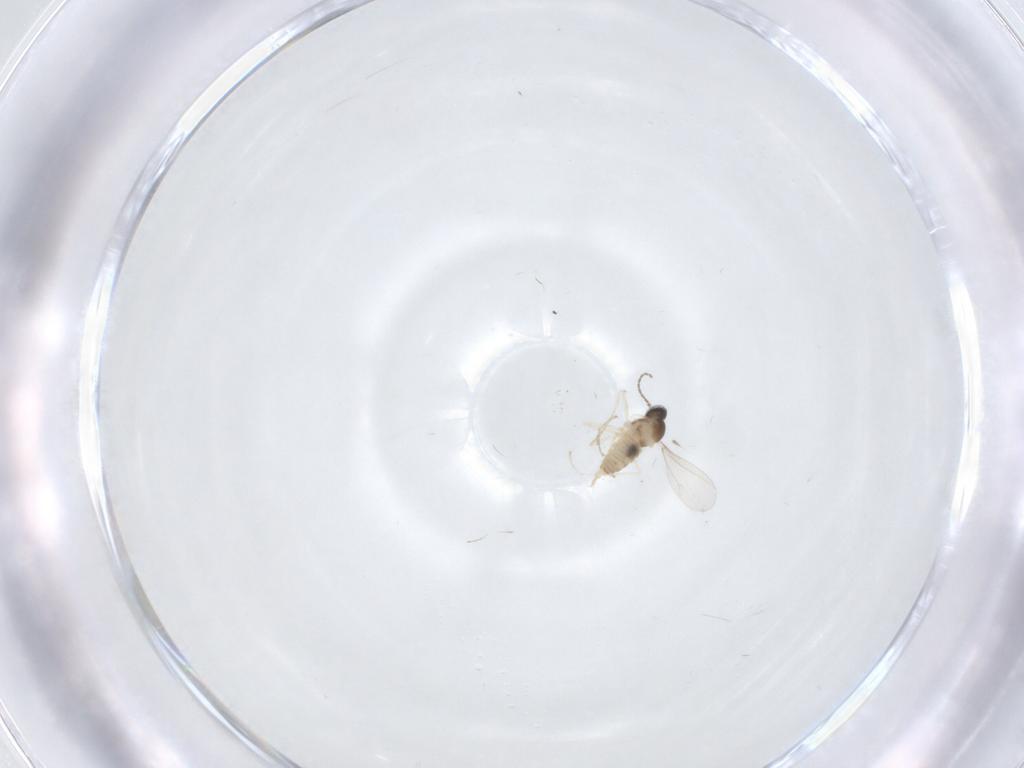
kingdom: Animalia
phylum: Arthropoda
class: Insecta
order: Diptera
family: Cecidomyiidae
